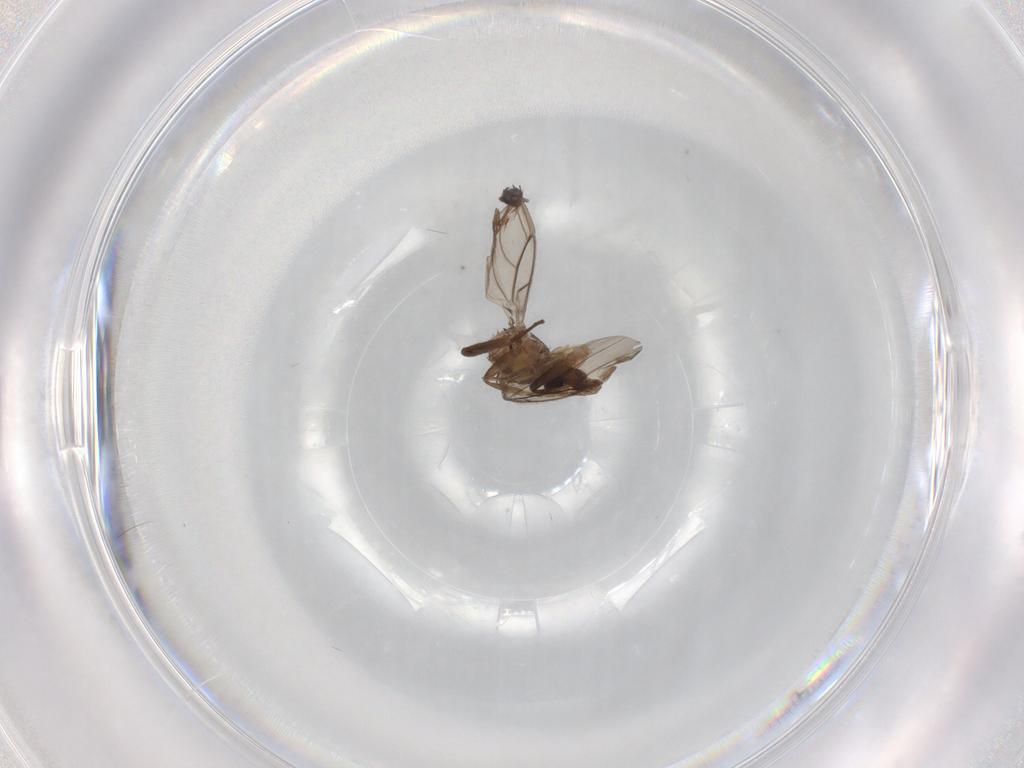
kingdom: Animalia
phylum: Arthropoda
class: Insecta
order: Diptera
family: Phoridae
